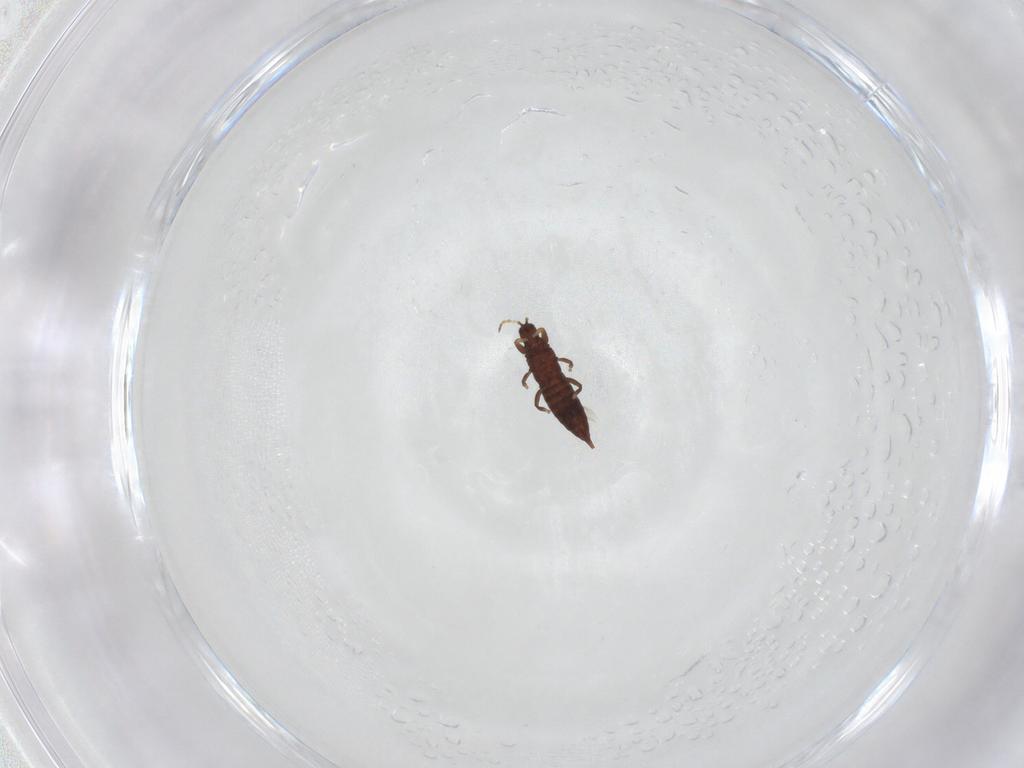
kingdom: Animalia
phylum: Arthropoda
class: Insecta
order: Thysanoptera
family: Phlaeothripidae
